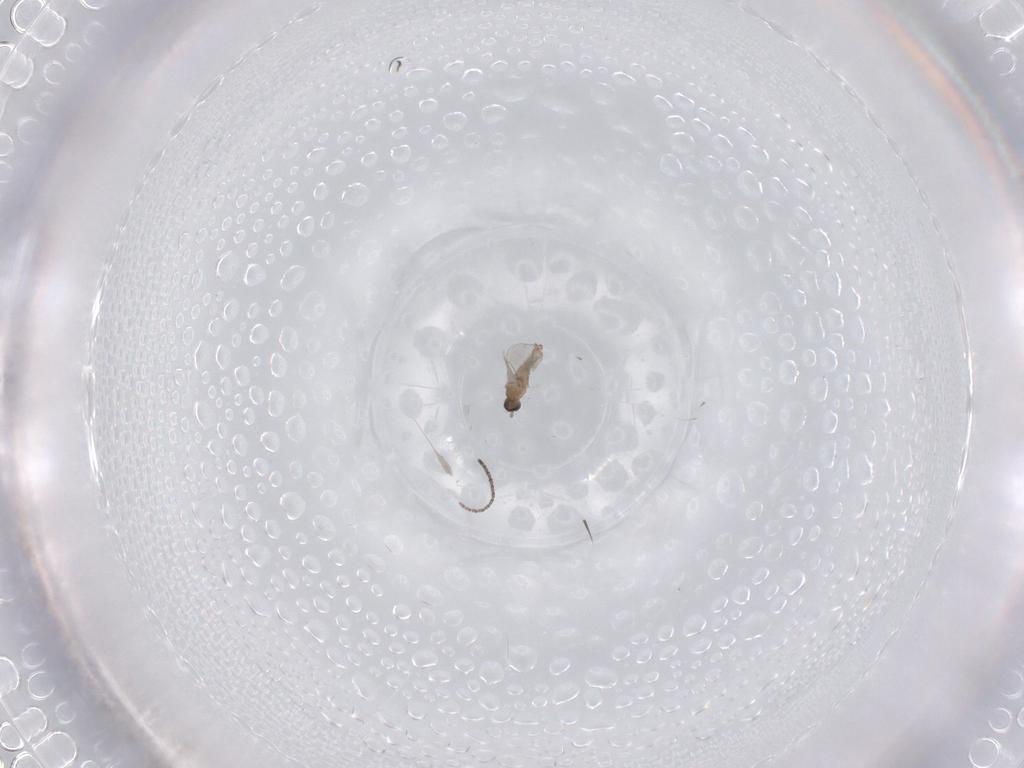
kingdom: Animalia
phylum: Arthropoda
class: Insecta
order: Diptera
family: Cecidomyiidae
